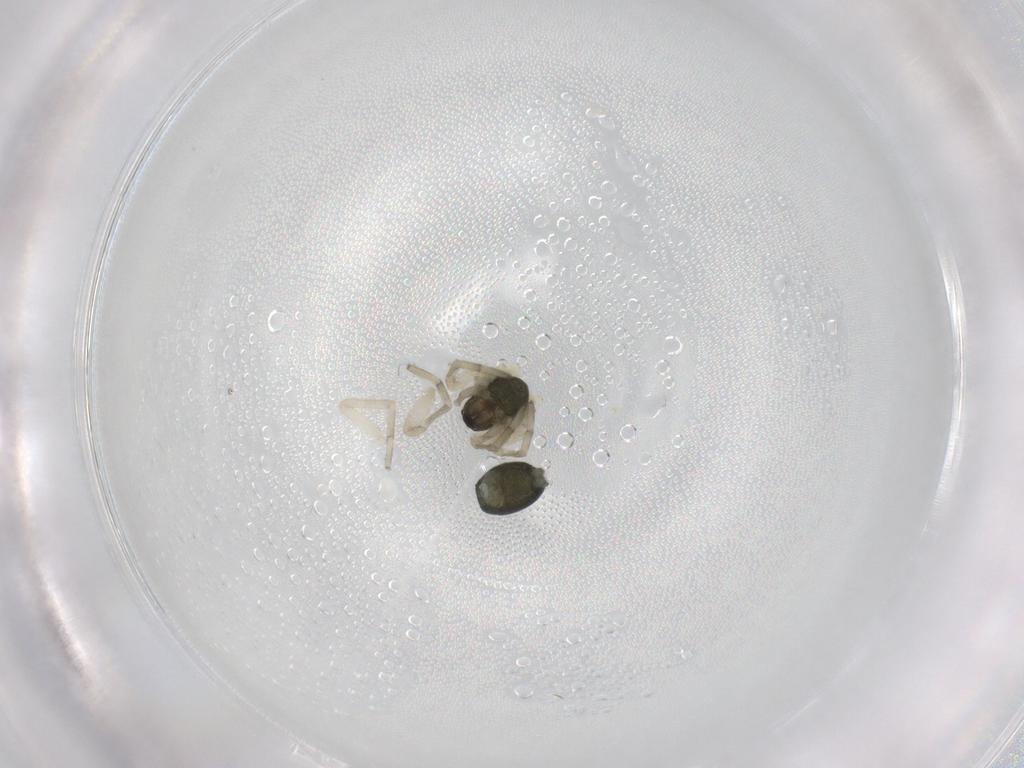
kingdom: Animalia
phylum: Arthropoda
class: Arachnida
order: Araneae
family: Trachelidae
